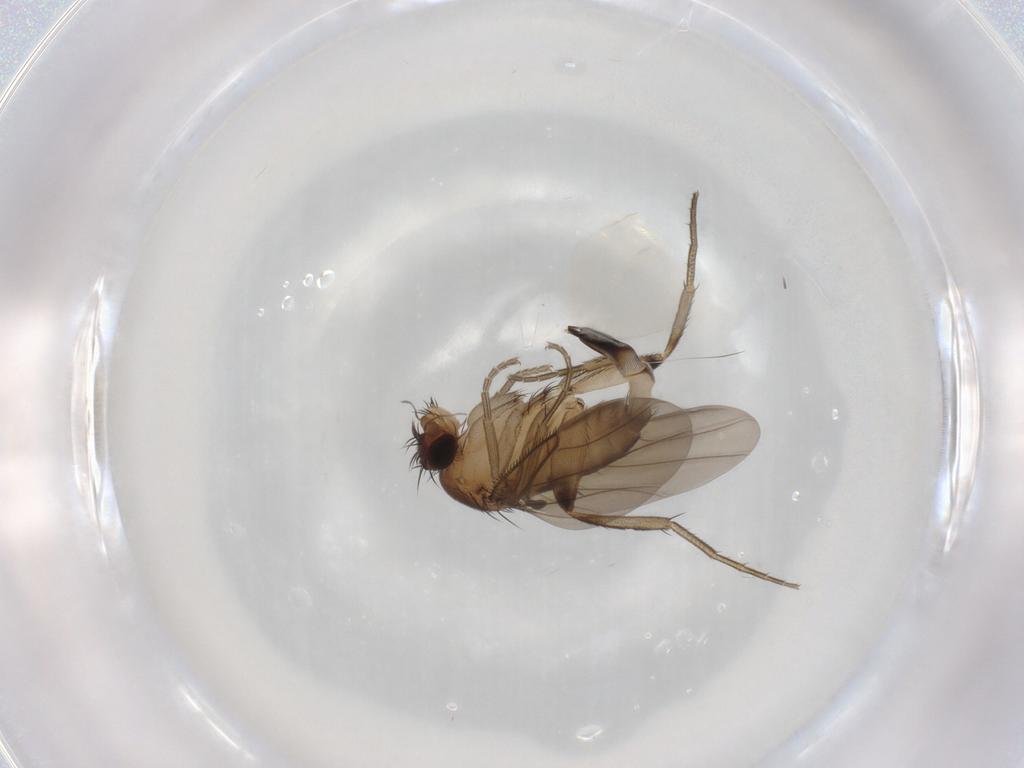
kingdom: Animalia
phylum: Arthropoda
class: Insecta
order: Diptera
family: Phoridae
